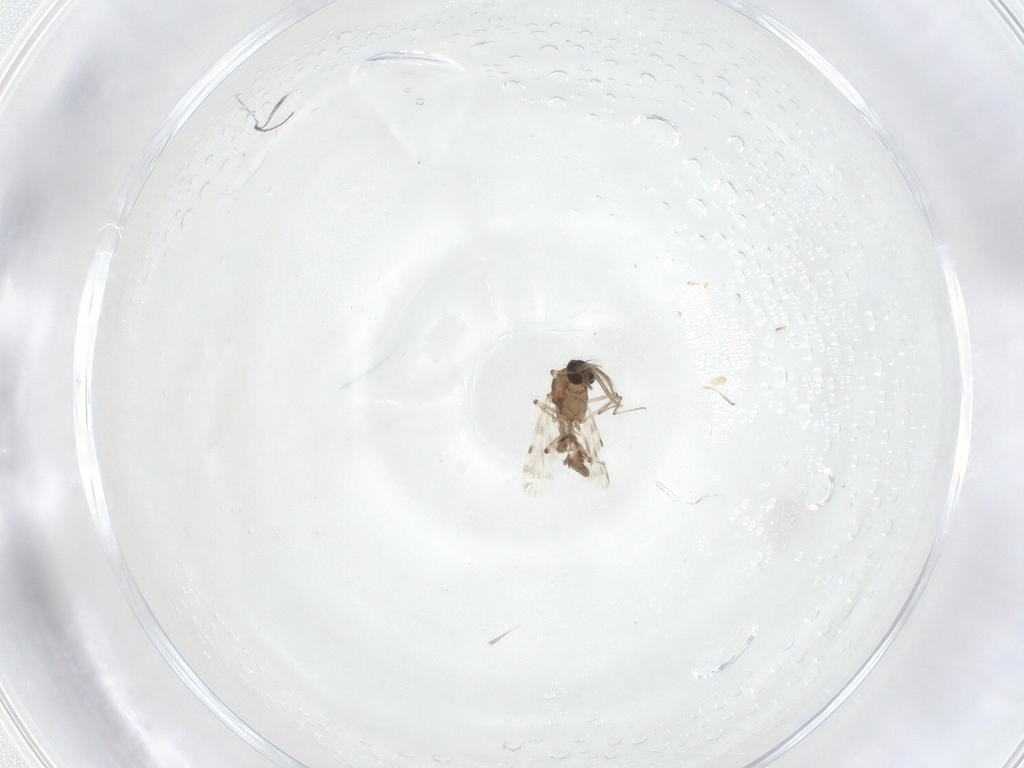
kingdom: Animalia
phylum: Arthropoda
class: Insecta
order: Diptera
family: Ceratopogonidae
